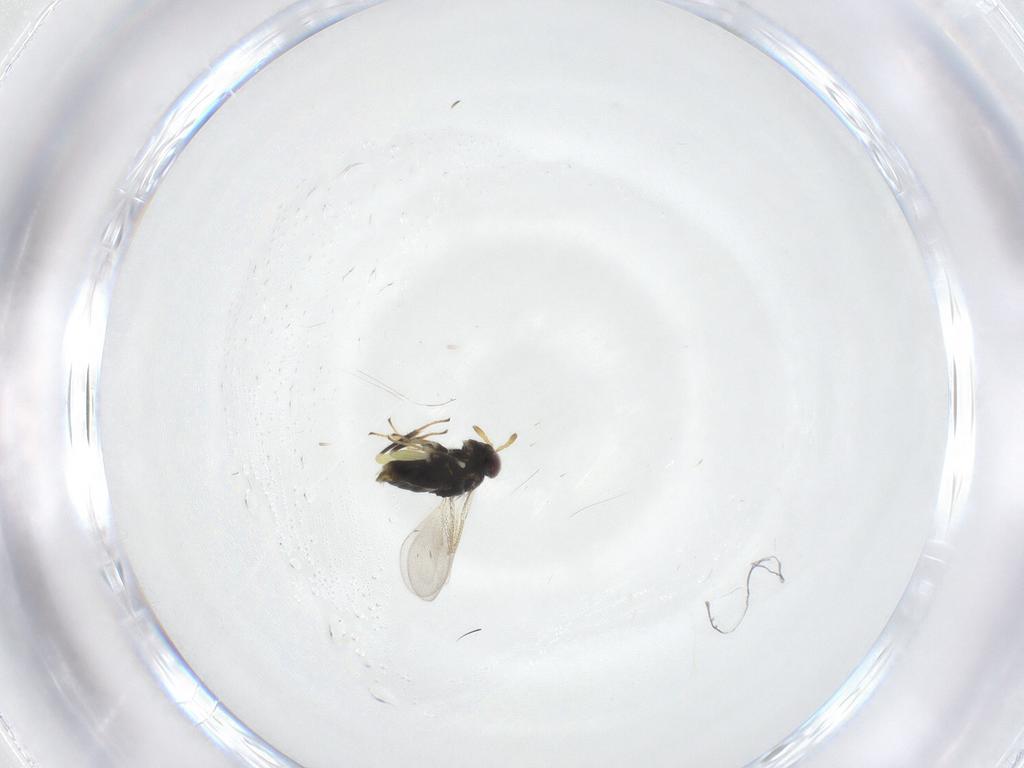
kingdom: Animalia
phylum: Arthropoda
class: Insecta
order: Hymenoptera
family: Aphelinidae
